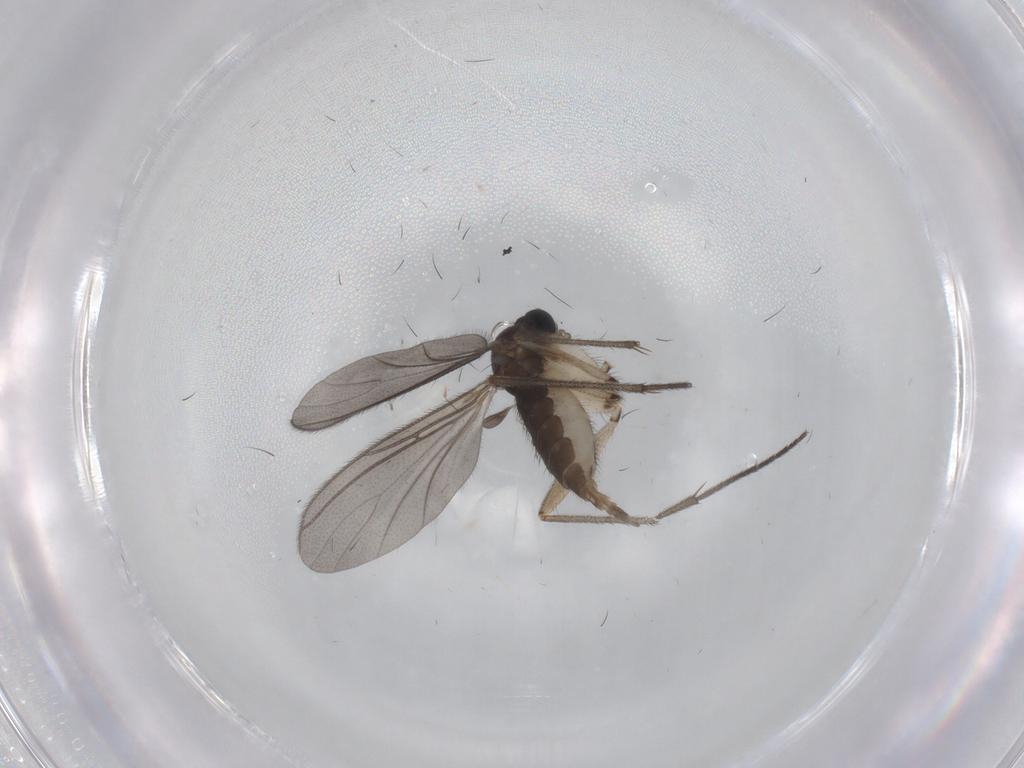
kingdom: Animalia
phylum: Arthropoda
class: Insecta
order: Diptera
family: Sciaridae
